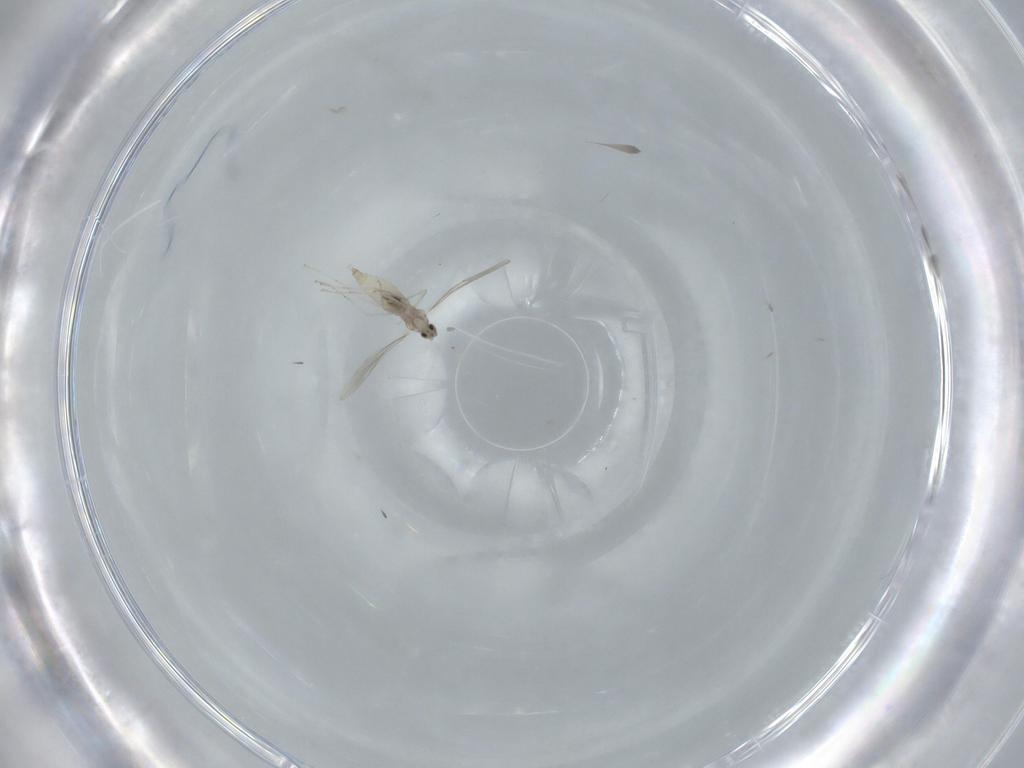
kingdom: Animalia
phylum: Arthropoda
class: Insecta
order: Diptera
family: Cecidomyiidae
